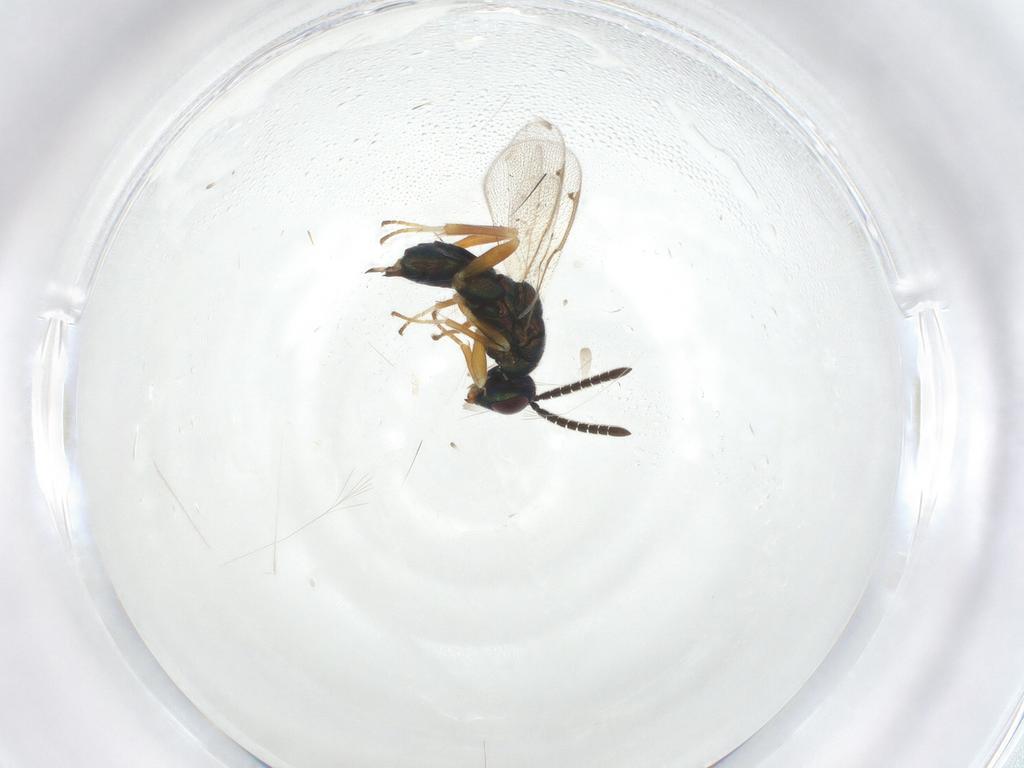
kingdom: Animalia
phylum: Arthropoda
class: Insecta
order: Hymenoptera
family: Torymidae
